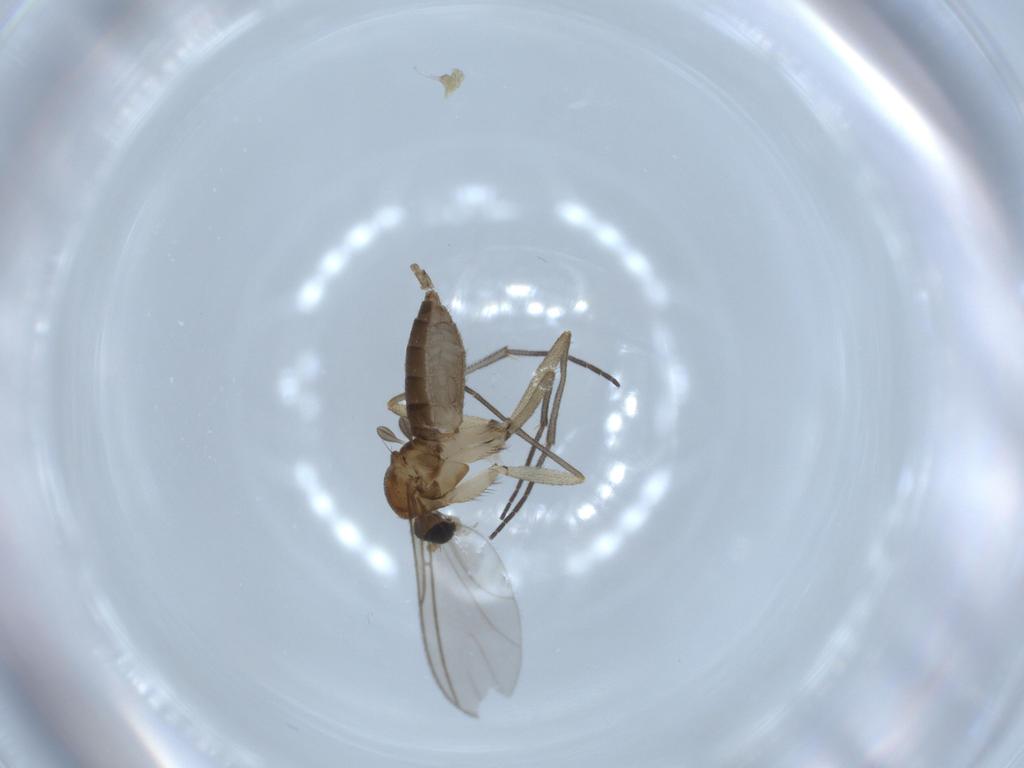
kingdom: Animalia
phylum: Arthropoda
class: Insecta
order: Diptera
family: Sciaridae
